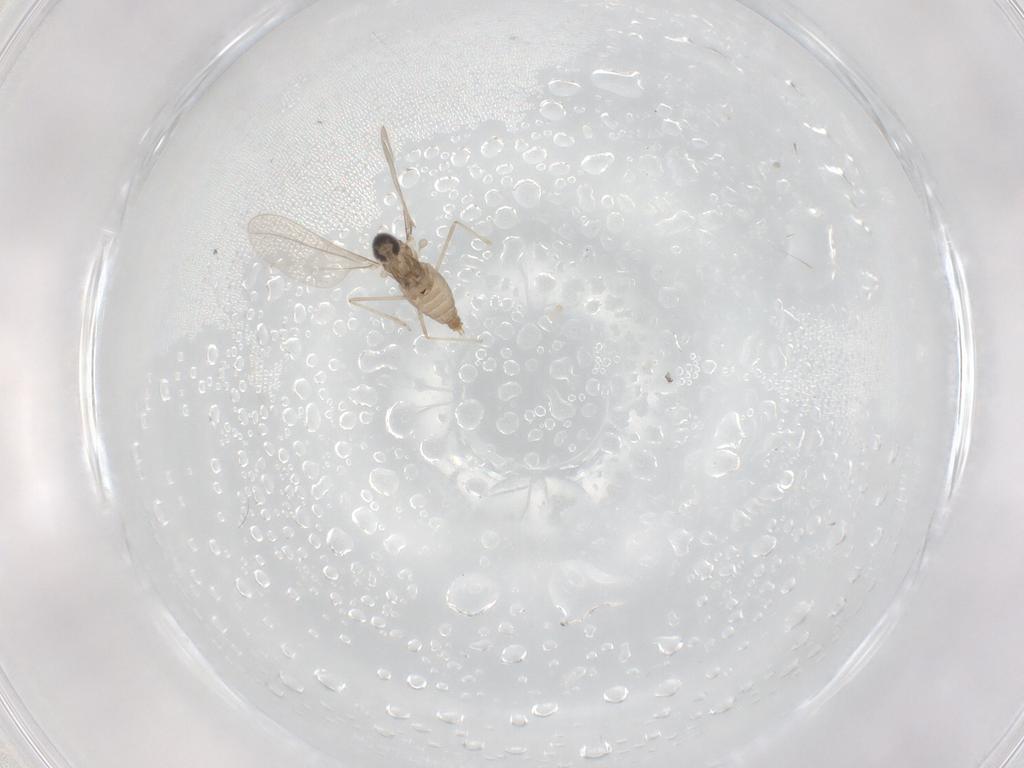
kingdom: Animalia
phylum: Arthropoda
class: Insecta
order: Diptera
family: Cecidomyiidae
